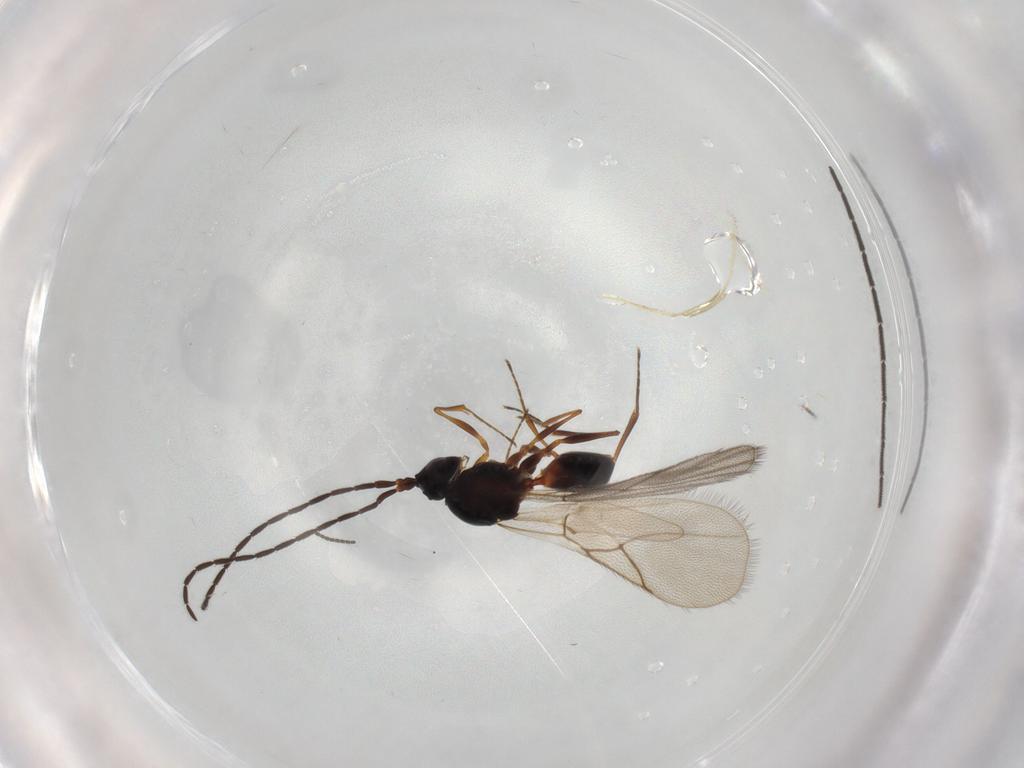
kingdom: Animalia
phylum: Arthropoda
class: Insecta
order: Hymenoptera
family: Figitidae
